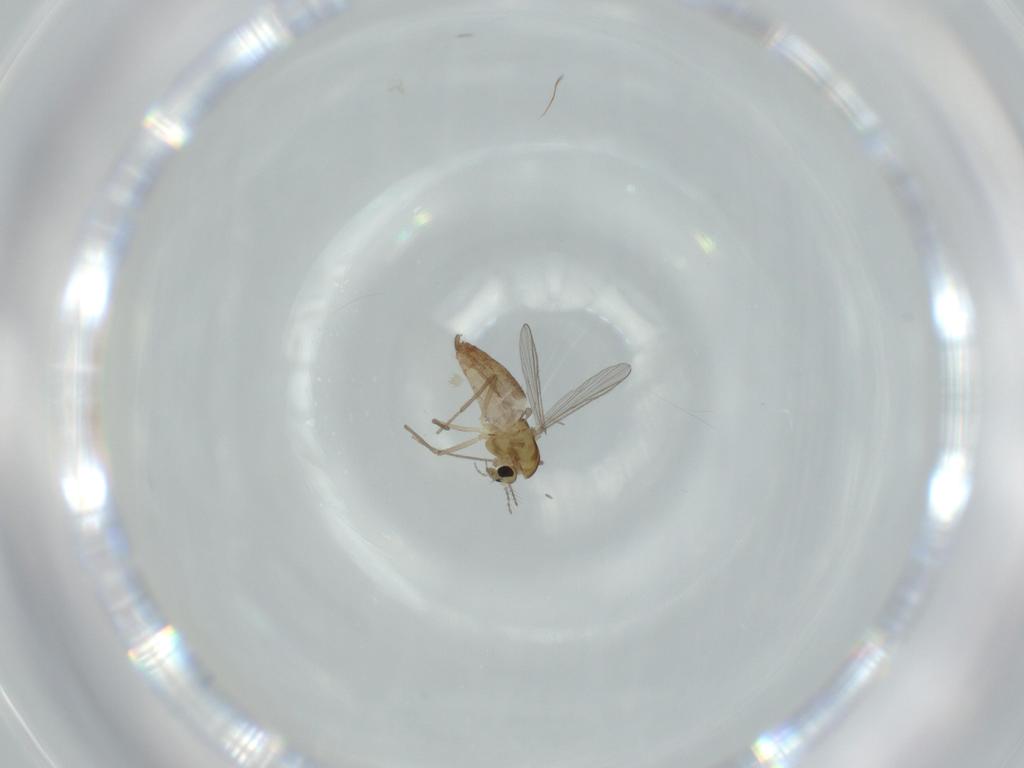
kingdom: Animalia
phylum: Arthropoda
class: Insecta
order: Diptera
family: Chironomidae
